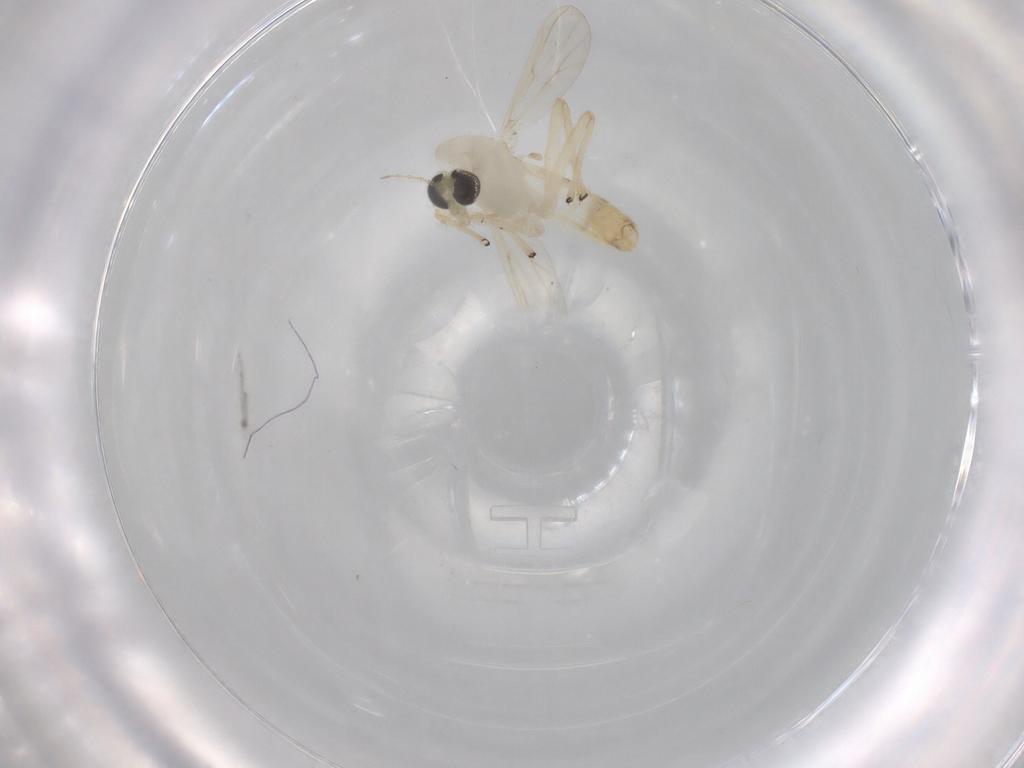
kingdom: Animalia
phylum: Arthropoda
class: Insecta
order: Diptera
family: Chironomidae
